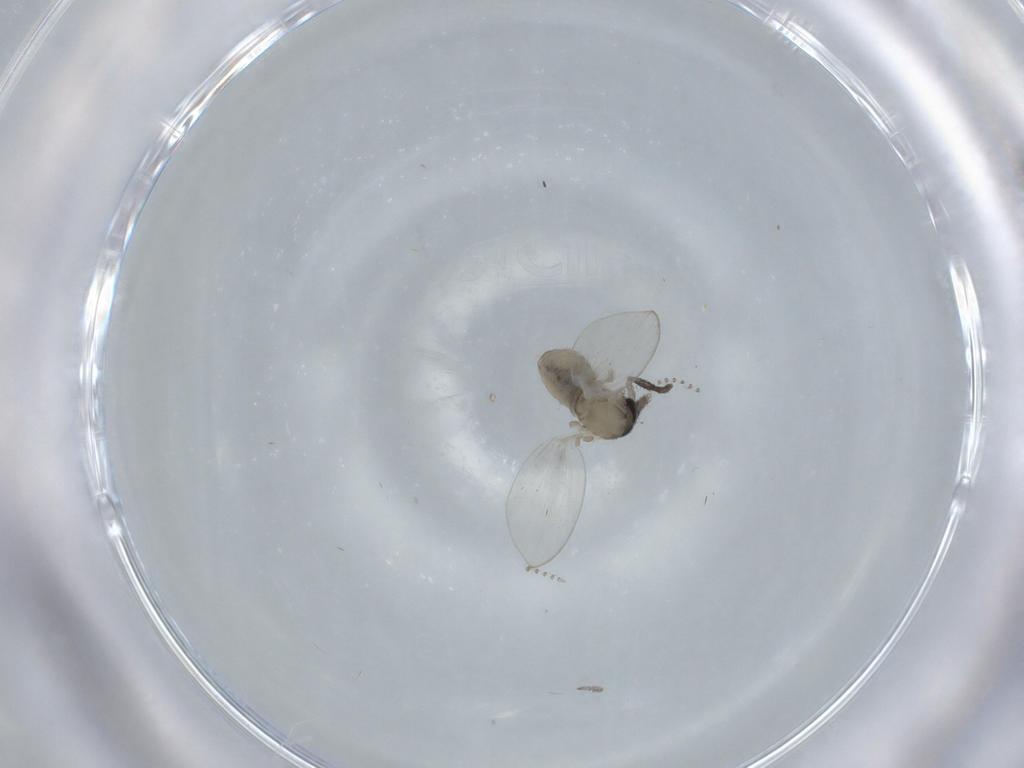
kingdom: Animalia
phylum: Arthropoda
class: Insecta
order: Diptera
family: Psychodidae
